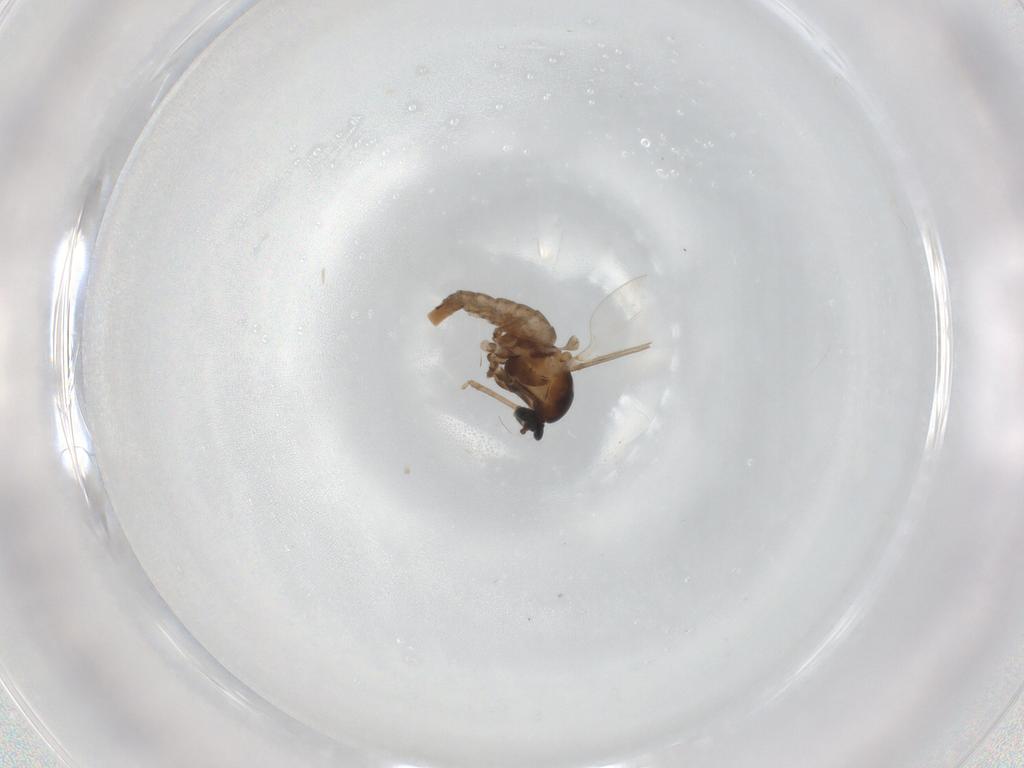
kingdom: Animalia
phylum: Arthropoda
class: Insecta
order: Diptera
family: Cecidomyiidae
